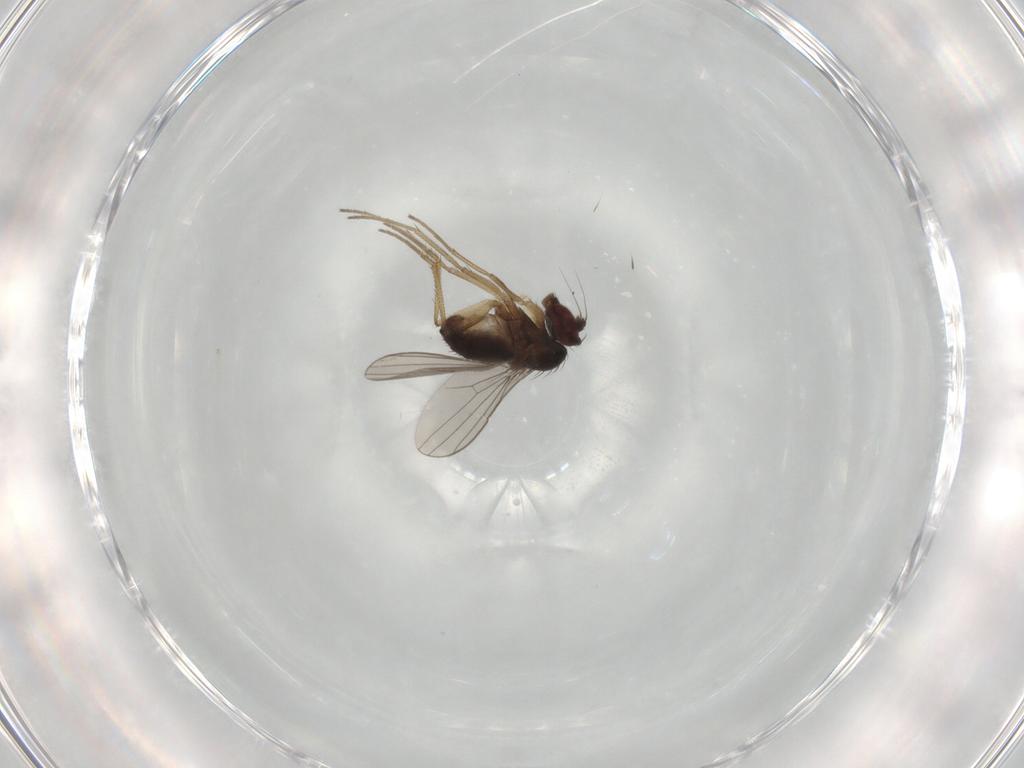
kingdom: Animalia
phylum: Arthropoda
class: Insecta
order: Diptera
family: Dolichopodidae
